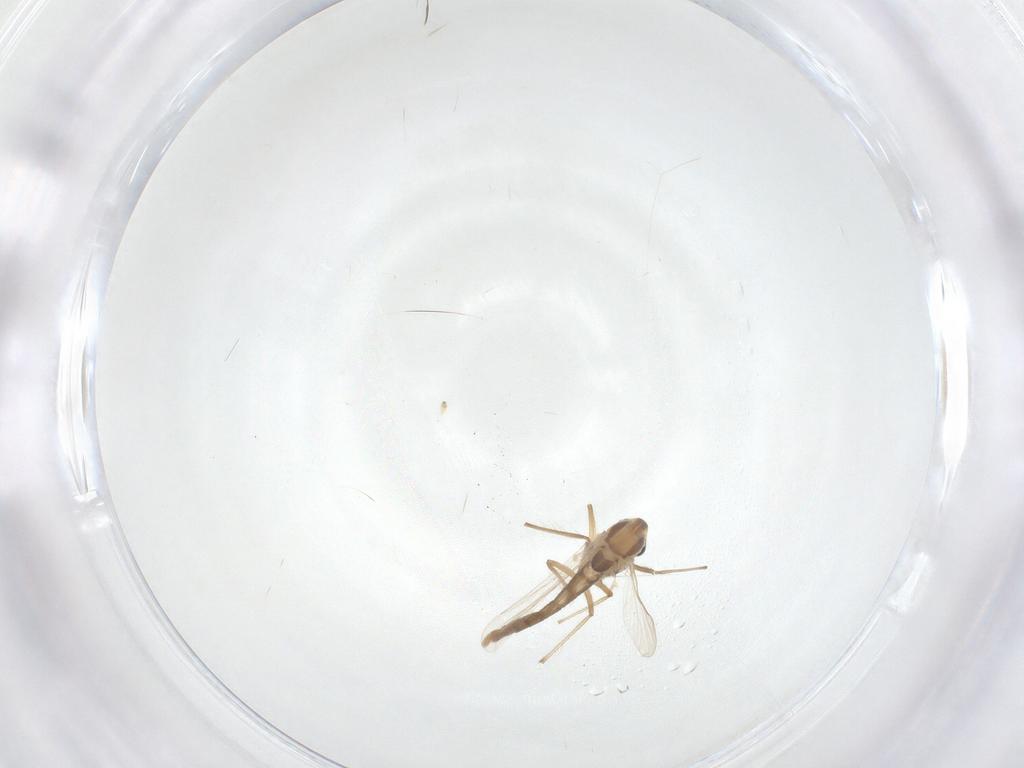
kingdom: Animalia
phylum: Arthropoda
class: Insecta
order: Diptera
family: Chironomidae
